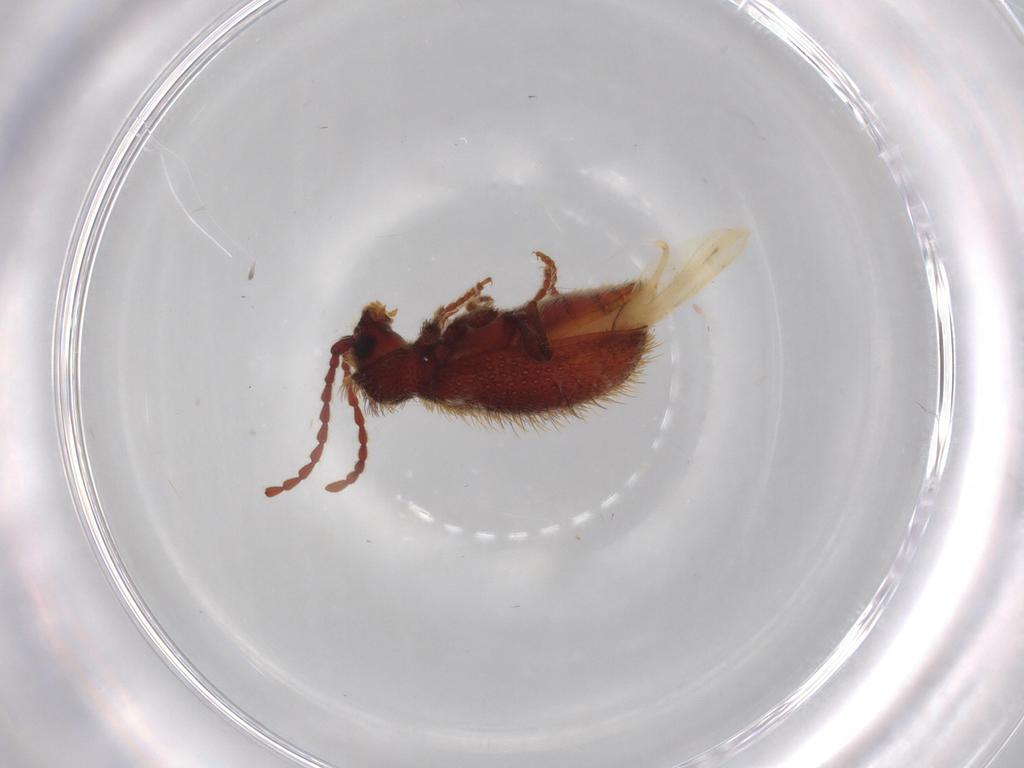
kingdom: Animalia
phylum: Arthropoda
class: Insecta
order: Coleoptera
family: Ptinidae
